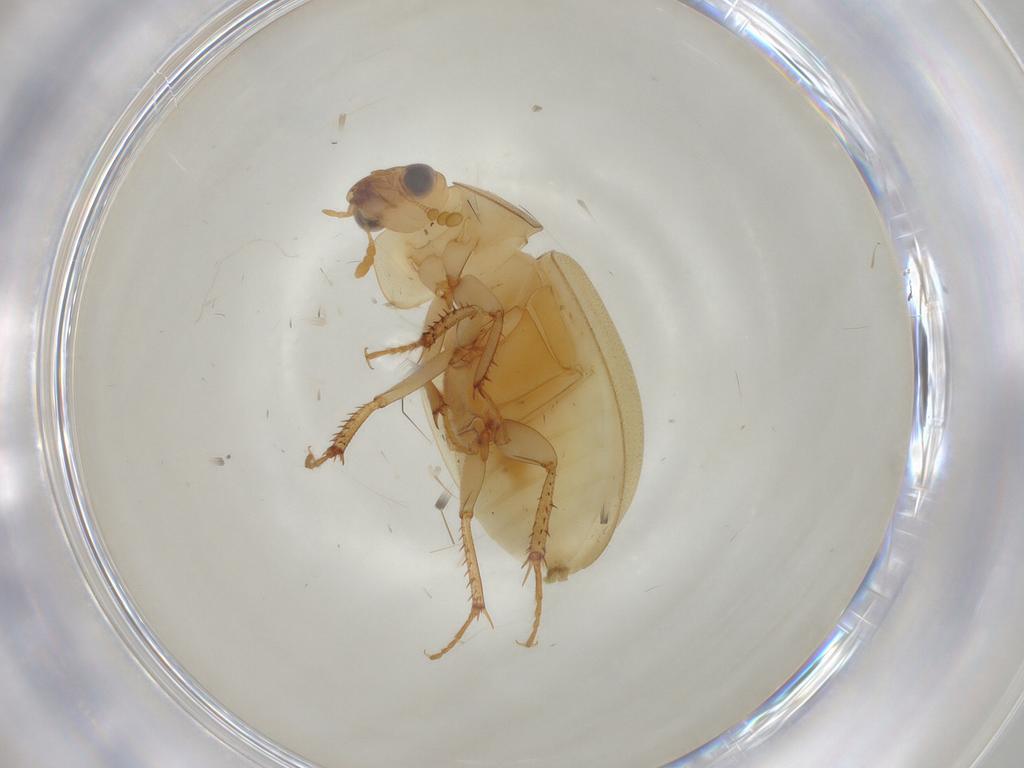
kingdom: Animalia
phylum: Arthropoda
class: Insecta
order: Coleoptera
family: Hydrophilidae
